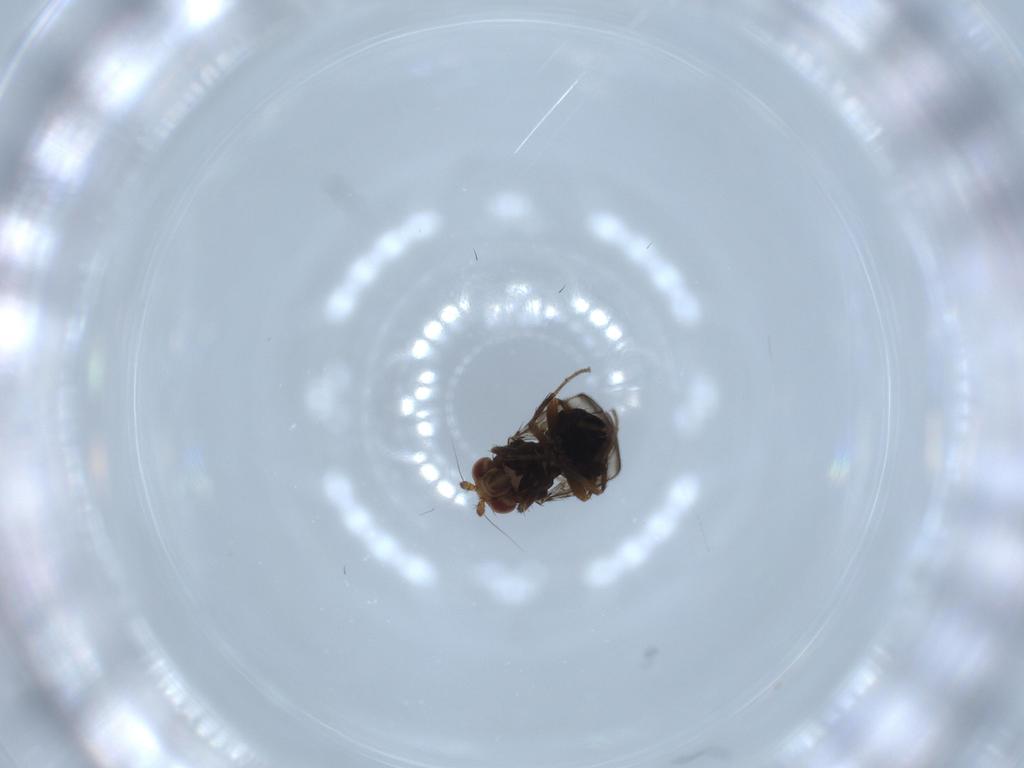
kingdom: Animalia
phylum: Arthropoda
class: Insecta
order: Diptera
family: Sphaeroceridae
